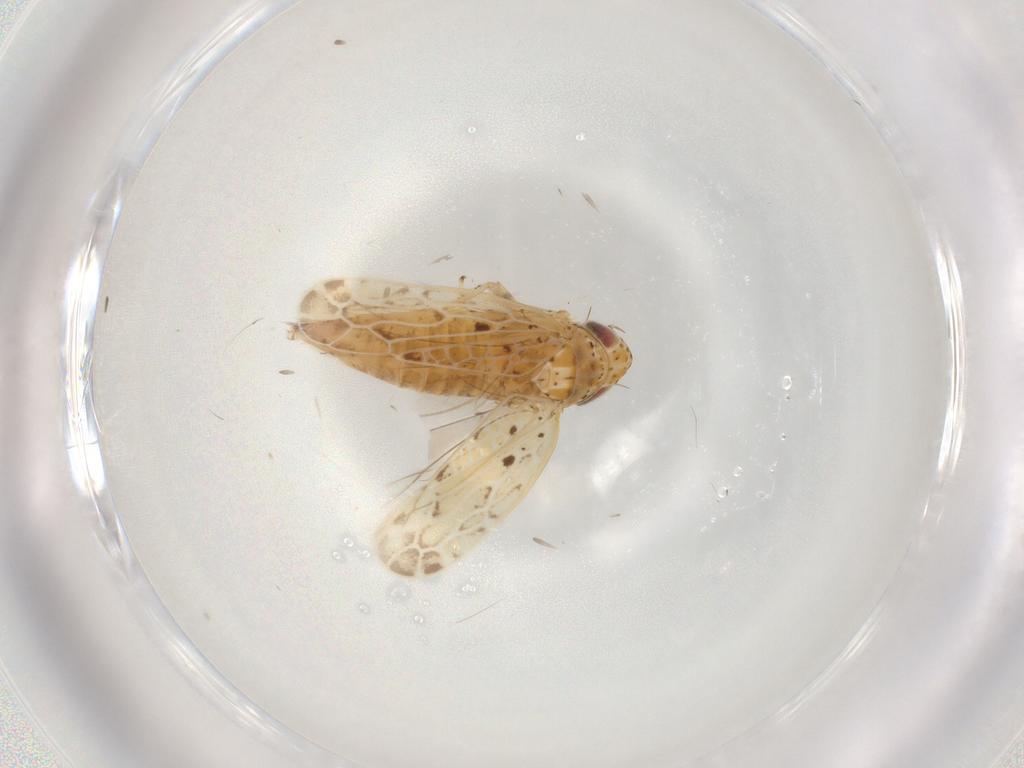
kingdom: Animalia
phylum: Arthropoda
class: Insecta
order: Hemiptera
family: Cicadellidae
